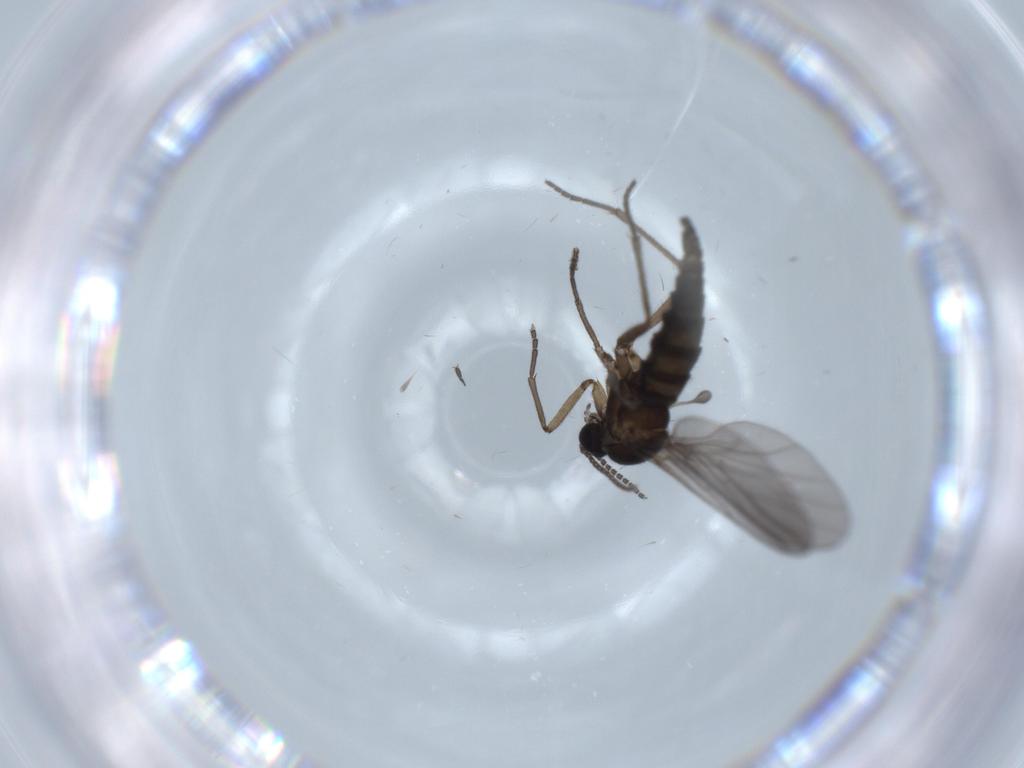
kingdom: Animalia
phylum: Arthropoda
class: Insecta
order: Diptera
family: Sciaridae
